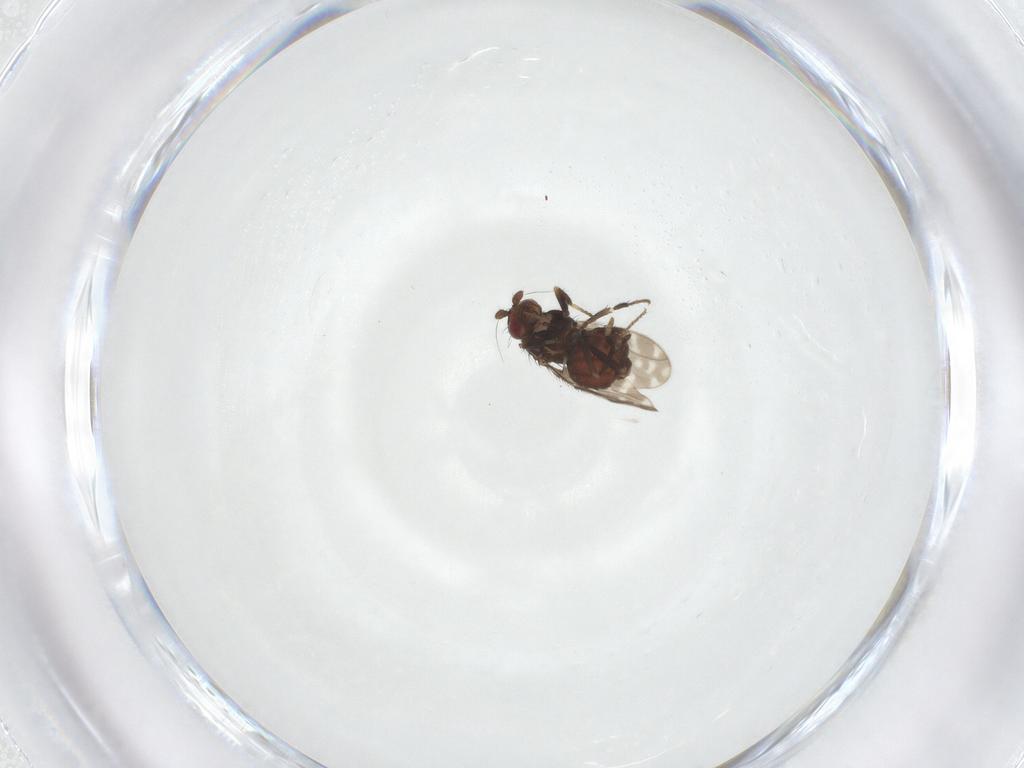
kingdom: Animalia
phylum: Arthropoda
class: Insecta
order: Diptera
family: Sphaeroceridae
